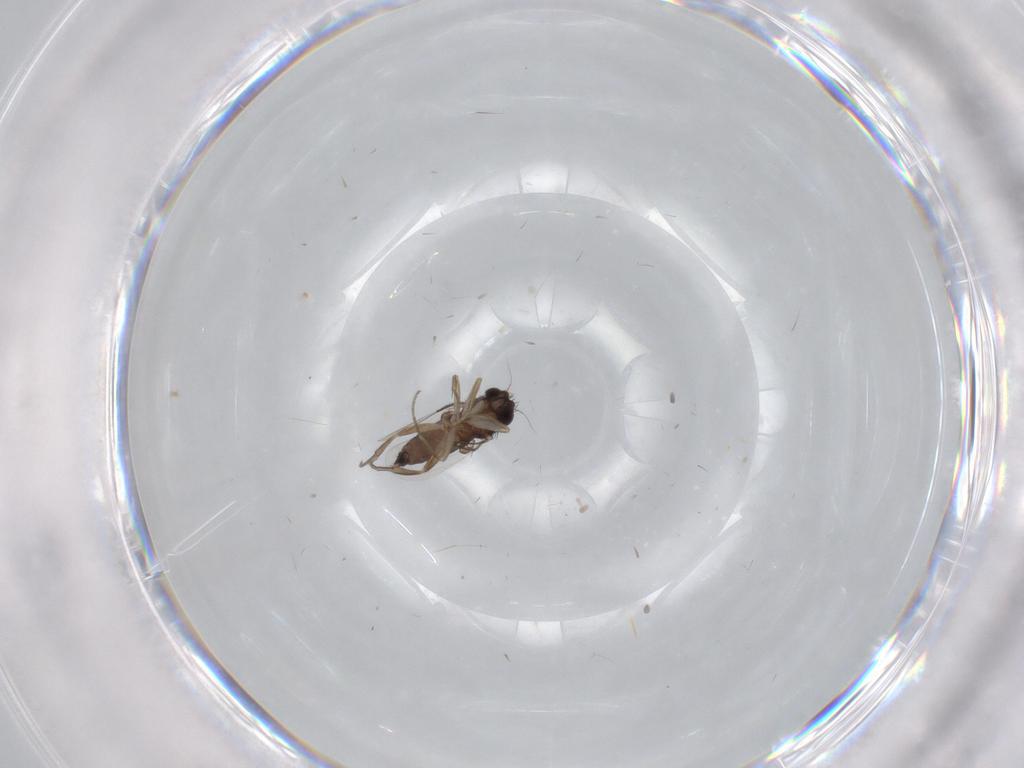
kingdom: Animalia
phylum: Arthropoda
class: Insecta
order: Diptera
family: Phoridae
